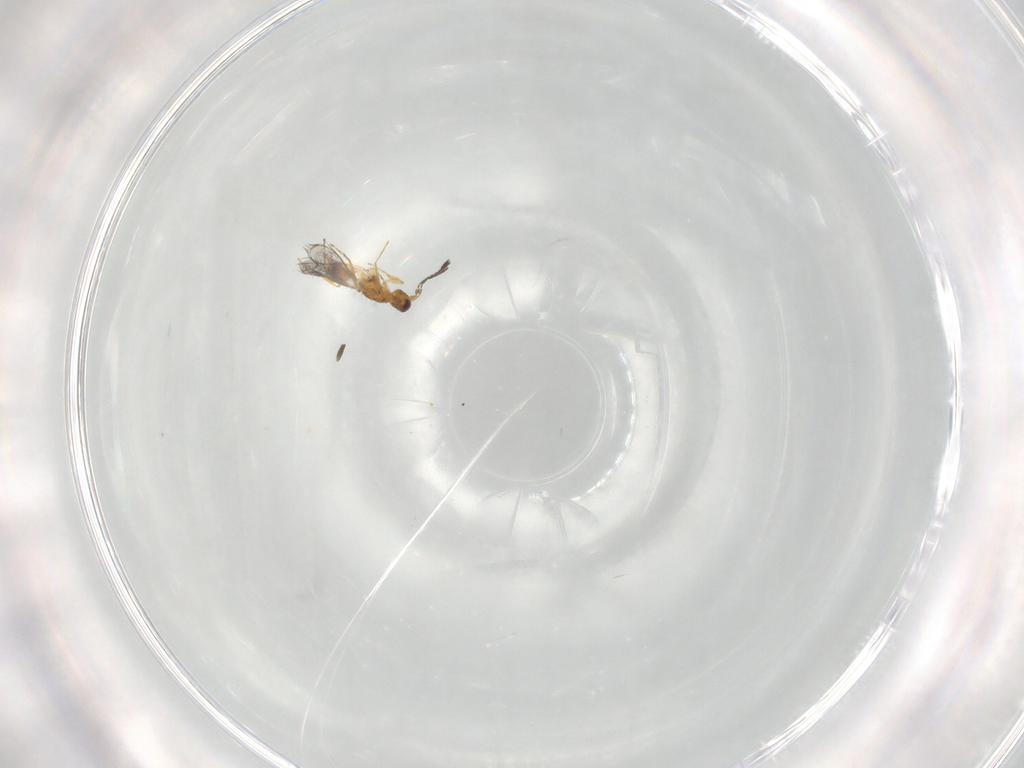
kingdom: Animalia
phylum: Arthropoda
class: Insecta
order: Hymenoptera
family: Mymaridae
